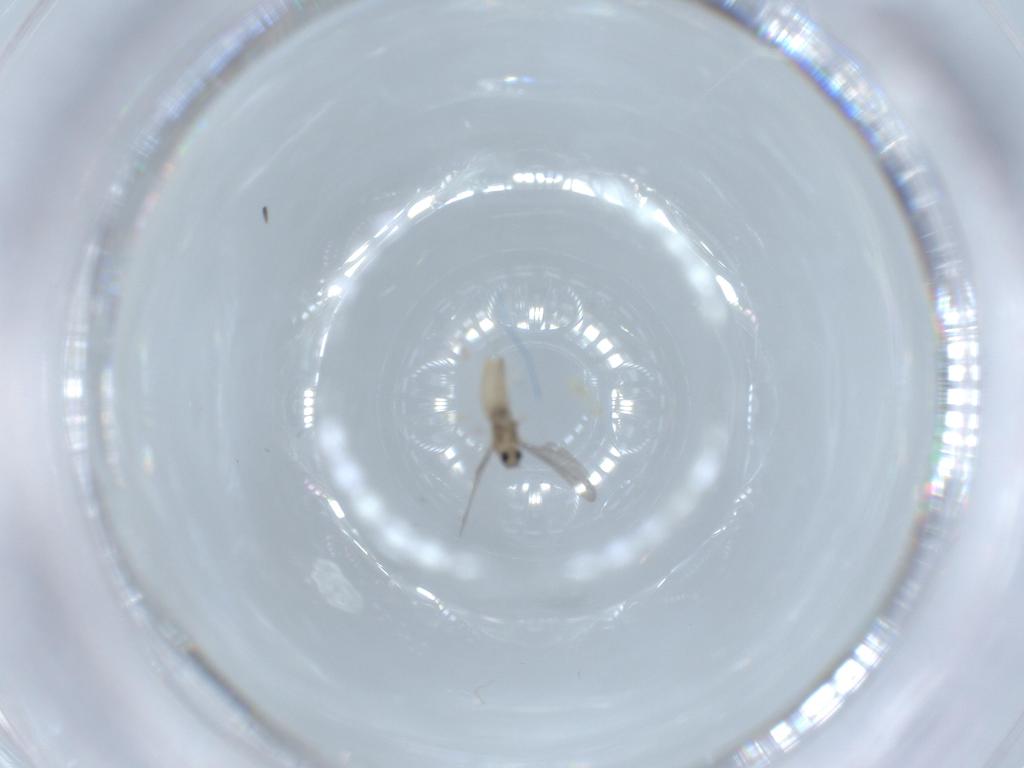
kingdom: Animalia
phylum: Arthropoda
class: Insecta
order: Diptera
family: Cecidomyiidae
